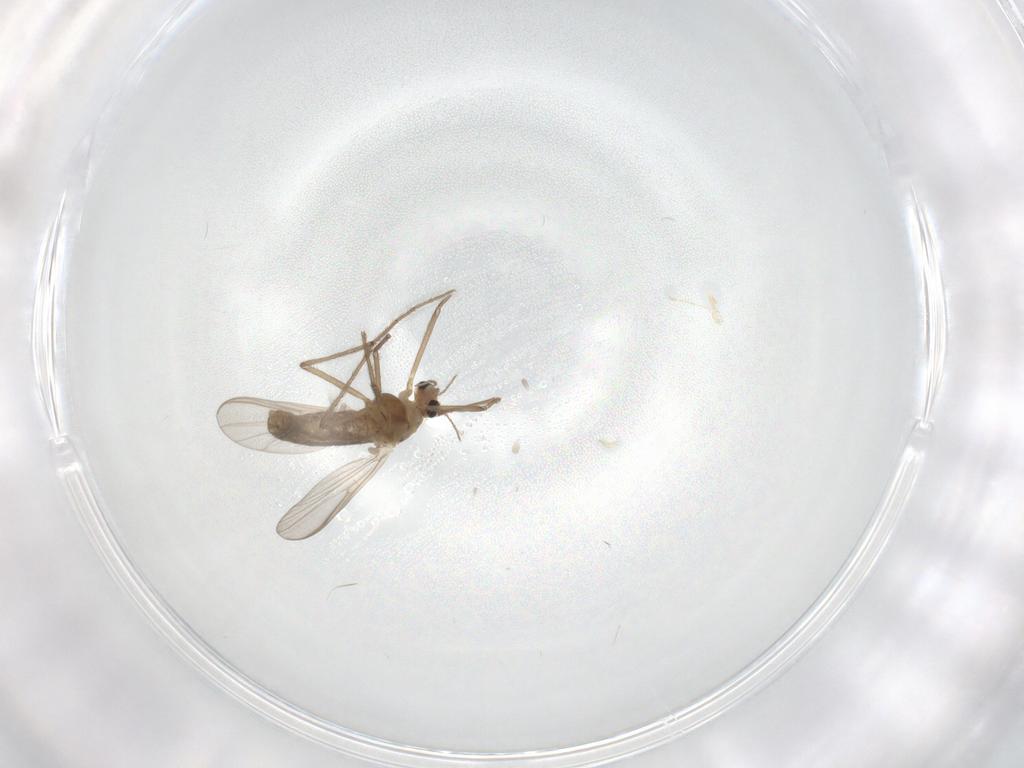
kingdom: Animalia
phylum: Arthropoda
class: Insecta
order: Diptera
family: Chironomidae
